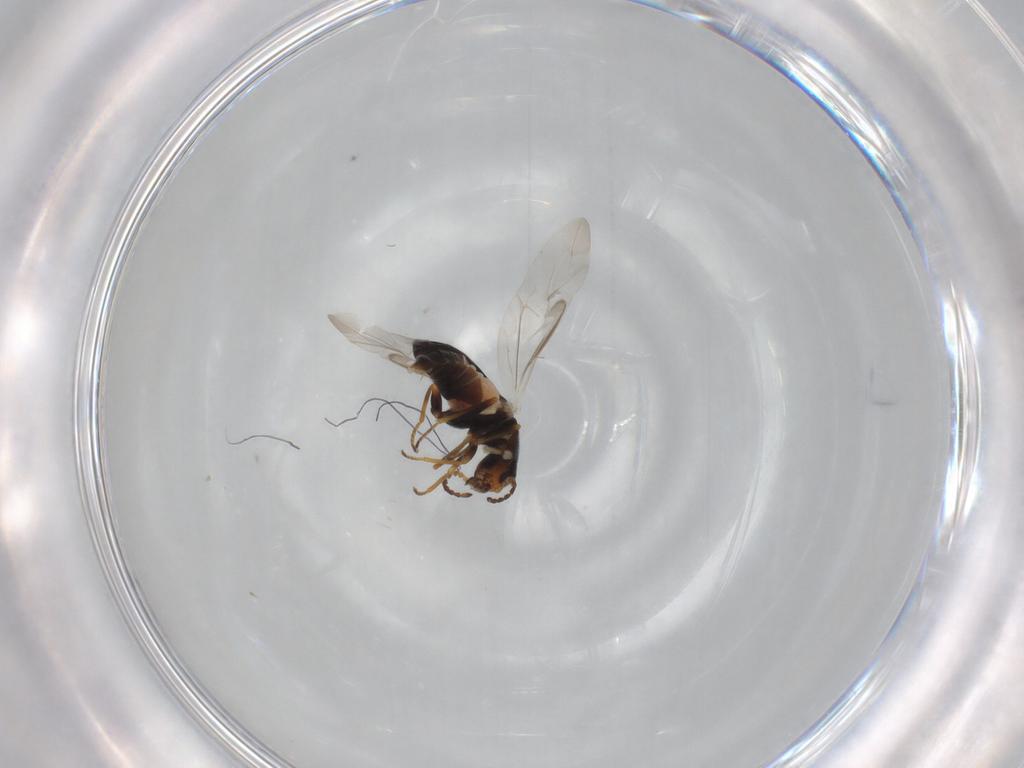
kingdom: Animalia
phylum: Arthropoda
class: Insecta
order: Coleoptera
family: Melyridae
